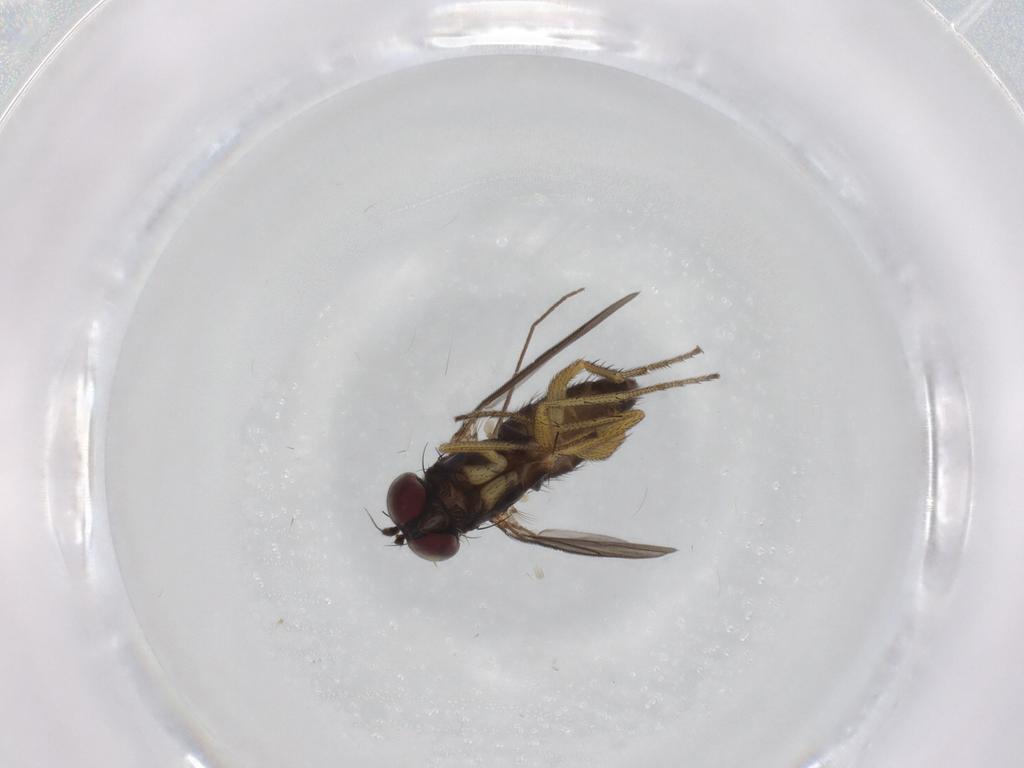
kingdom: Animalia
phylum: Arthropoda
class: Insecta
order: Diptera
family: Dolichopodidae
